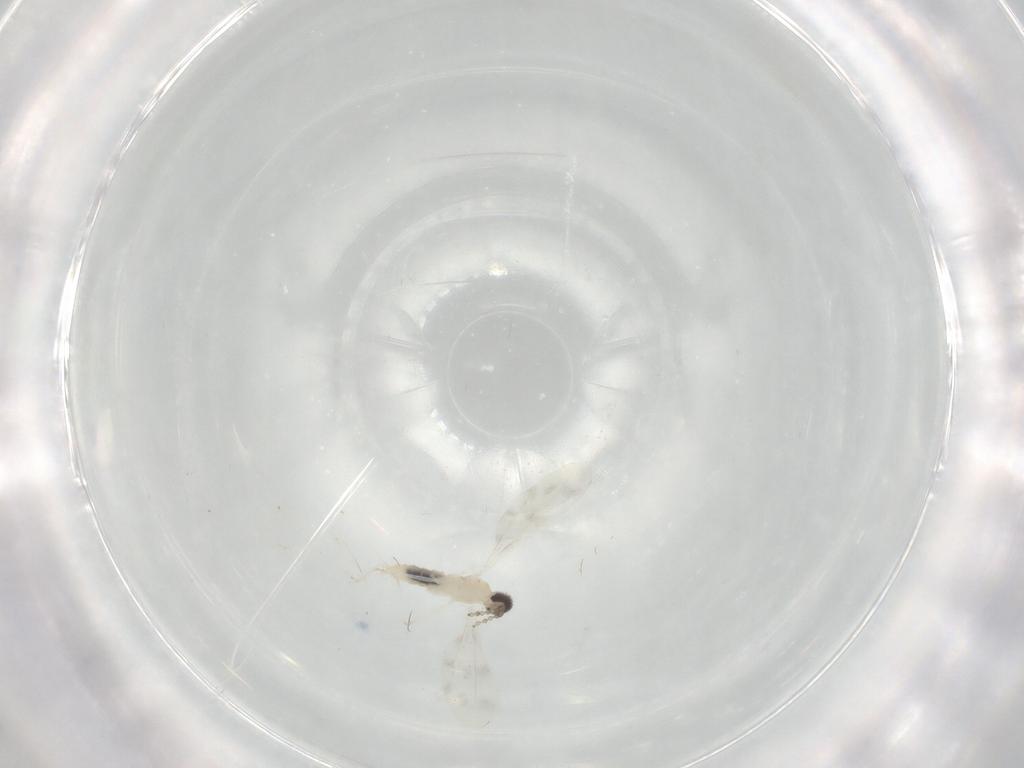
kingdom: Animalia
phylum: Arthropoda
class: Insecta
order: Diptera
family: Cecidomyiidae
